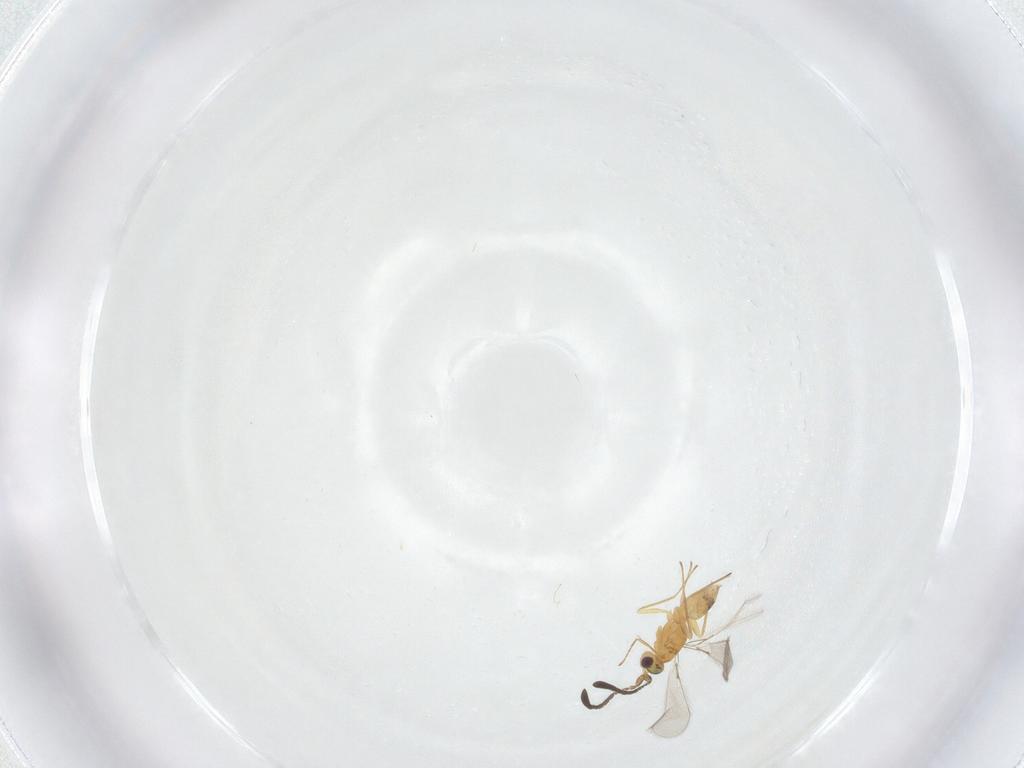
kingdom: Animalia
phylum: Arthropoda
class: Insecta
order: Hymenoptera
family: Mymaridae
